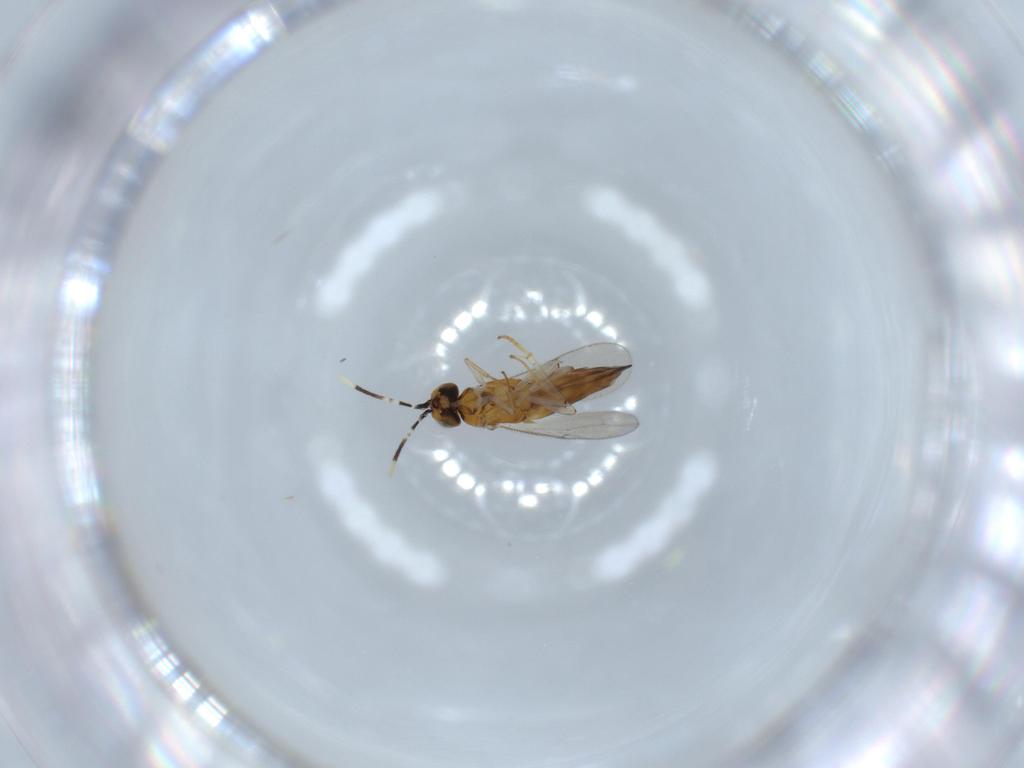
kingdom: Animalia
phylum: Arthropoda
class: Insecta
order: Hymenoptera
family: Encyrtidae
